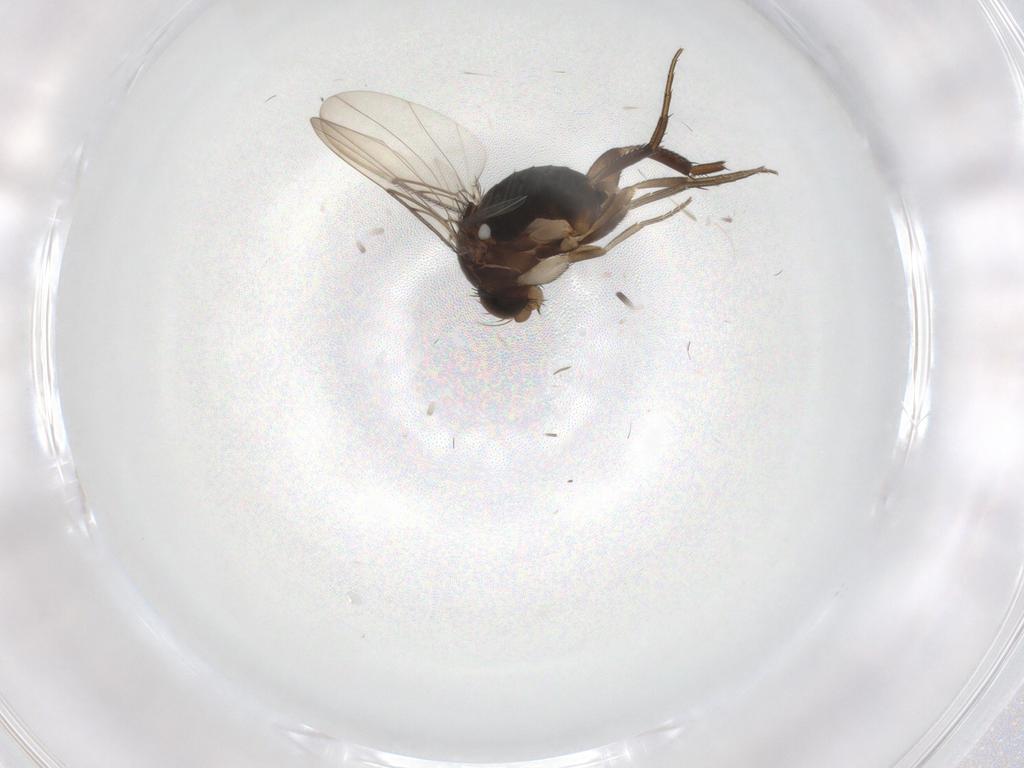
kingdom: Animalia
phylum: Arthropoda
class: Insecta
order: Diptera
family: Phoridae
